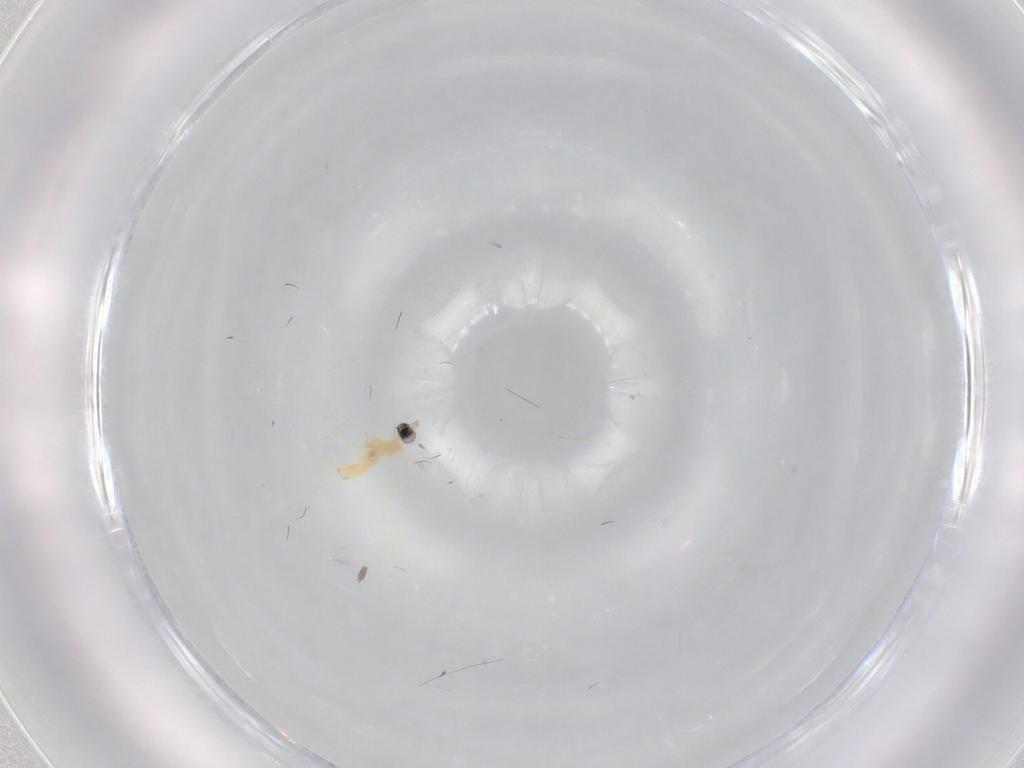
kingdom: Animalia
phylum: Arthropoda
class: Insecta
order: Diptera
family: Cecidomyiidae
